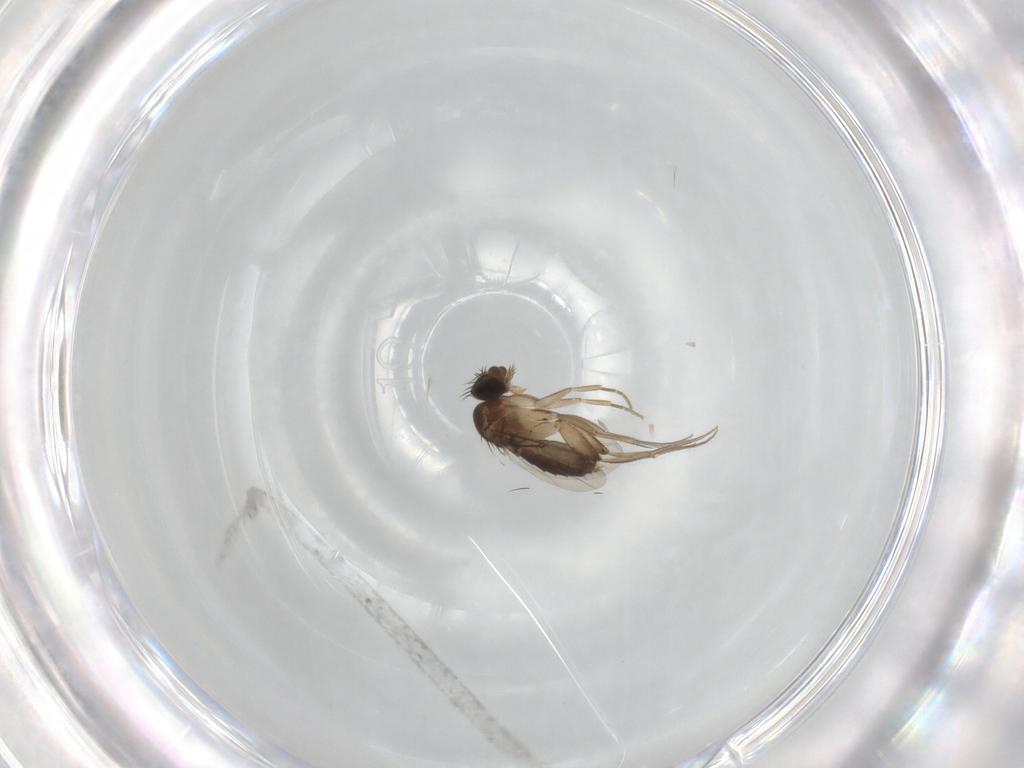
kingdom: Animalia
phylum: Arthropoda
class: Insecta
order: Diptera
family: Phoridae
